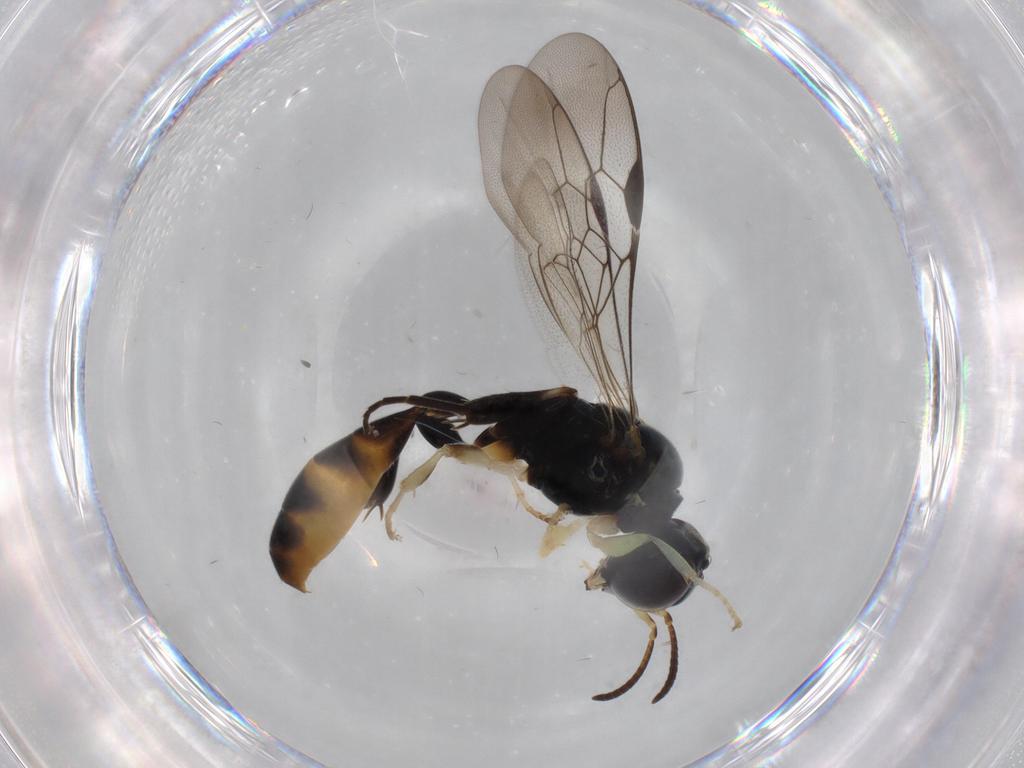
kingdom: Animalia
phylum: Arthropoda
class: Insecta
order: Hymenoptera
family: Crabronidae
